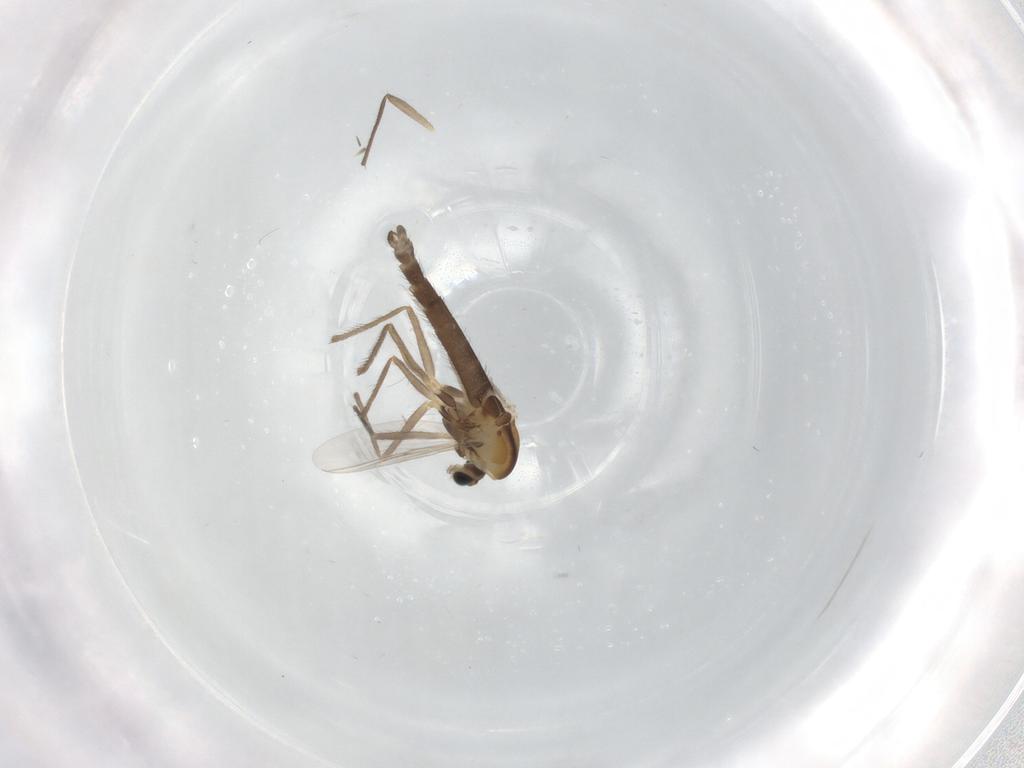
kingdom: Animalia
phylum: Arthropoda
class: Insecta
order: Diptera
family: Chironomidae
